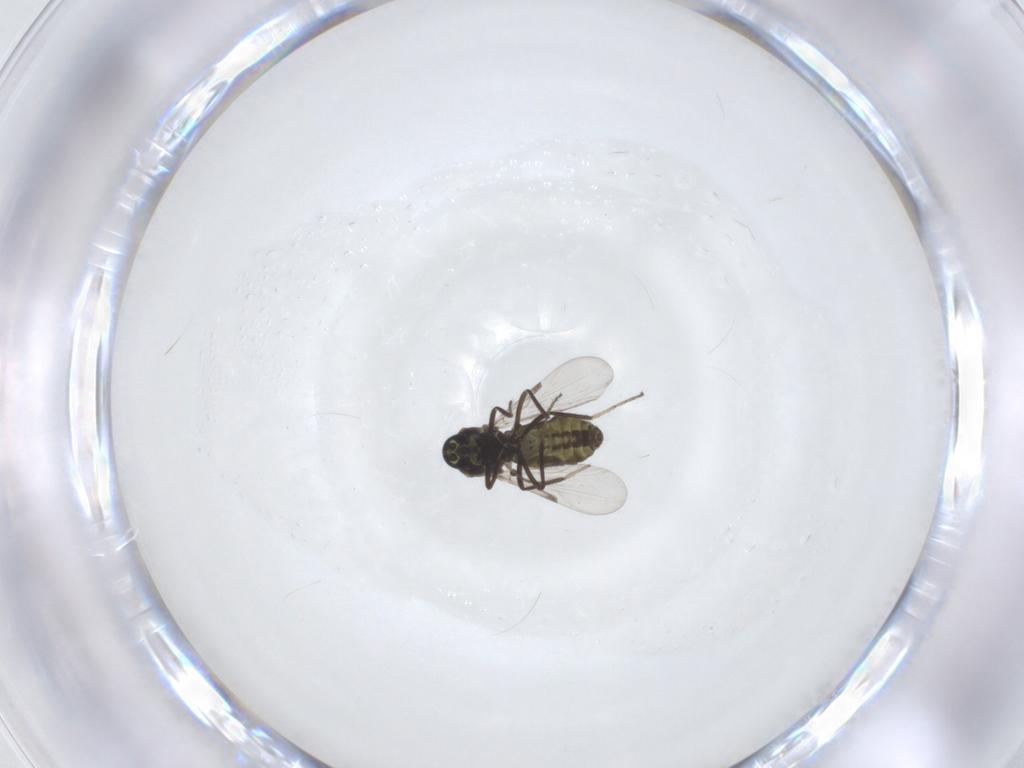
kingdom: Animalia
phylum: Arthropoda
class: Insecta
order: Diptera
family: Ceratopogonidae
